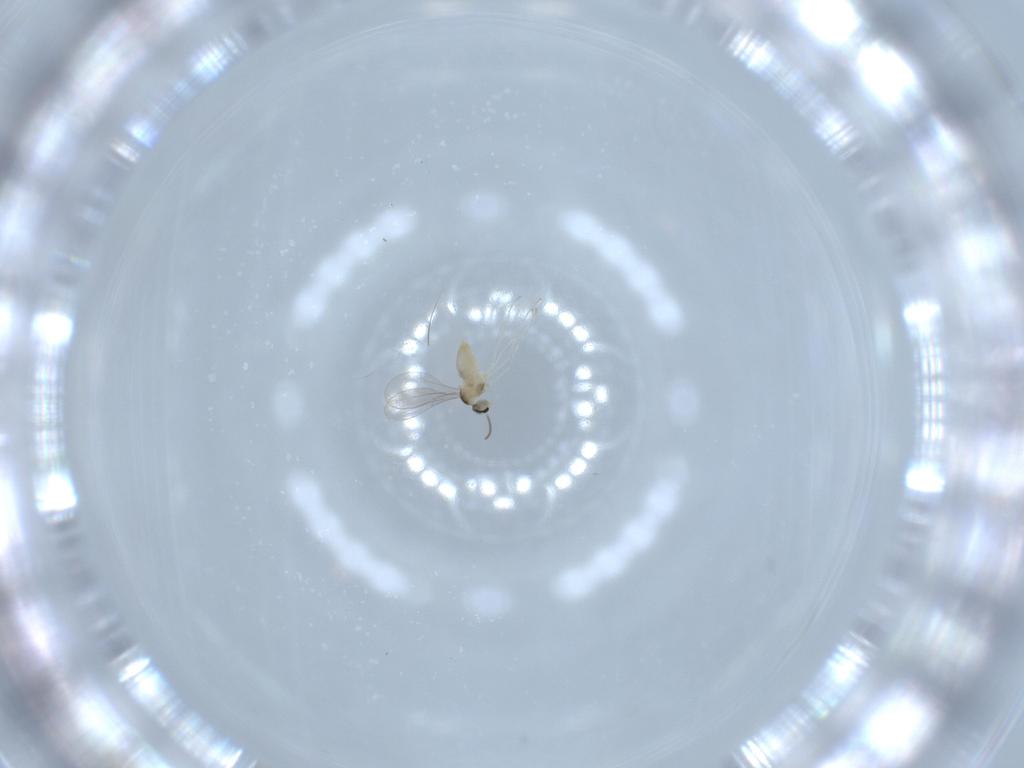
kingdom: Animalia
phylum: Arthropoda
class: Insecta
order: Diptera
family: Cecidomyiidae
